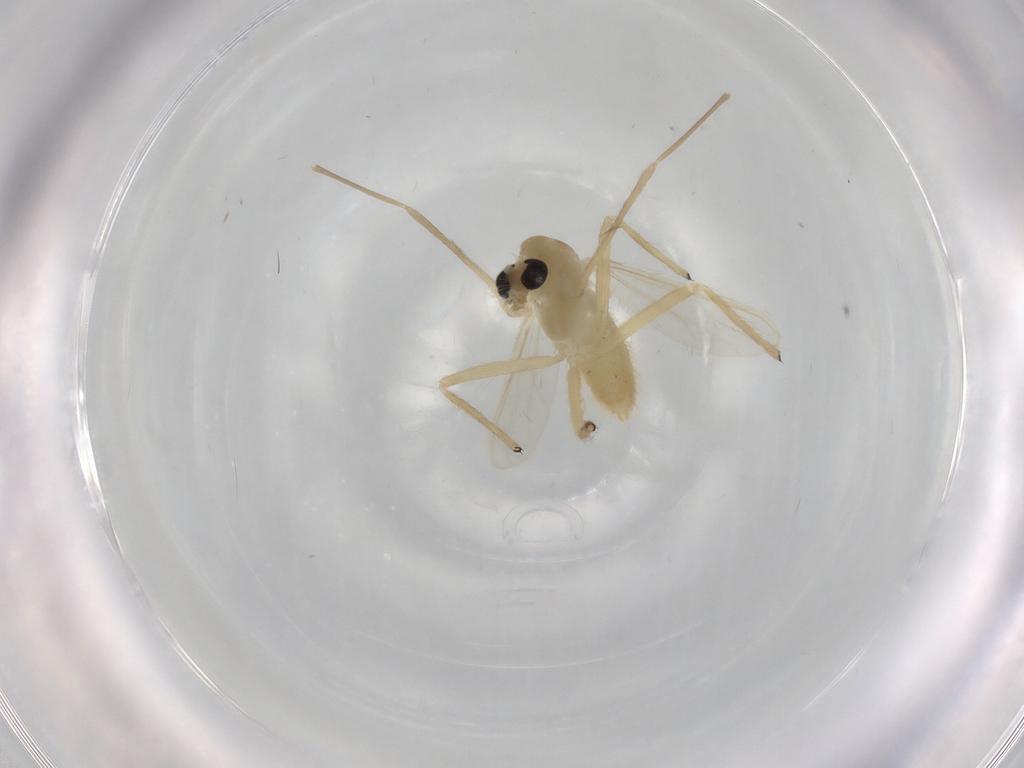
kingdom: Animalia
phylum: Arthropoda
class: Insecta
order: Diptera
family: Chironomidae
